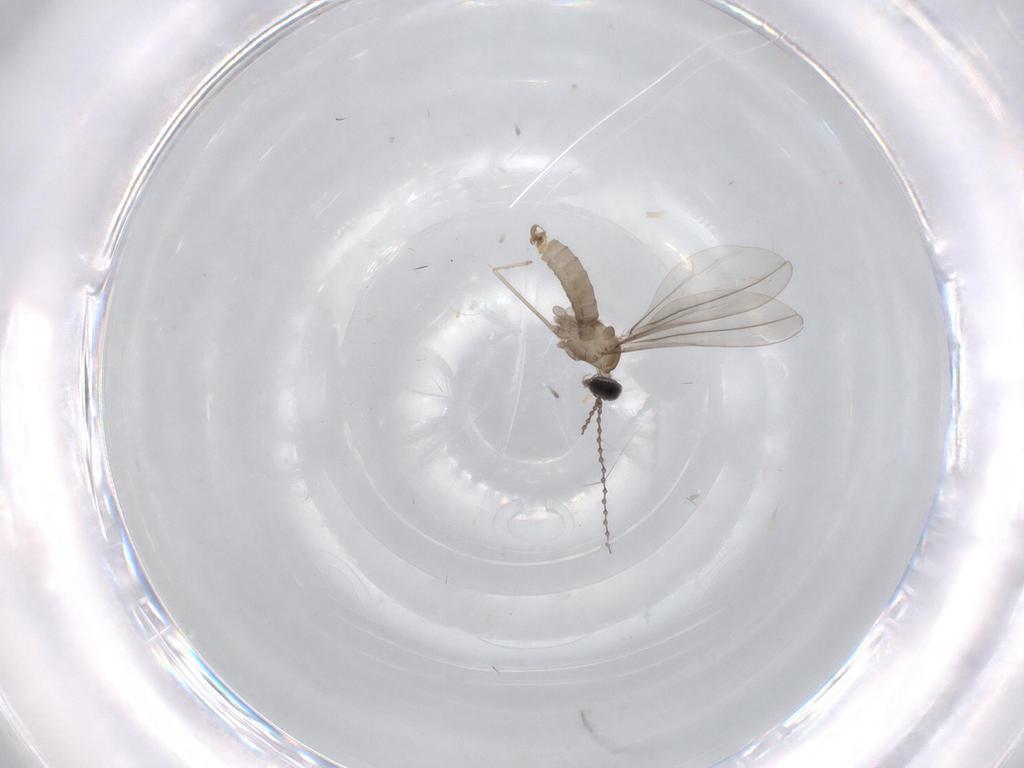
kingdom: Animalia
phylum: Arthropoda
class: Insecta
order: Diptera
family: Cecidomyiidae
